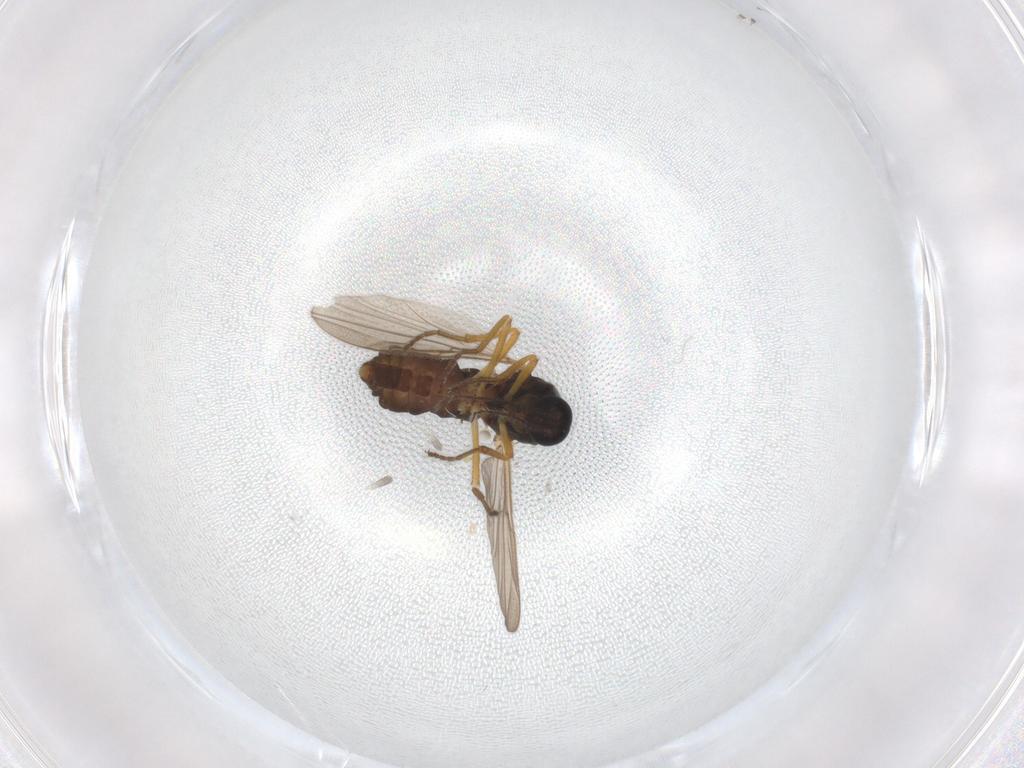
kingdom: Animalia
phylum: Arthropoda
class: Insecta
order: Diptera
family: Ceratopogonidae
